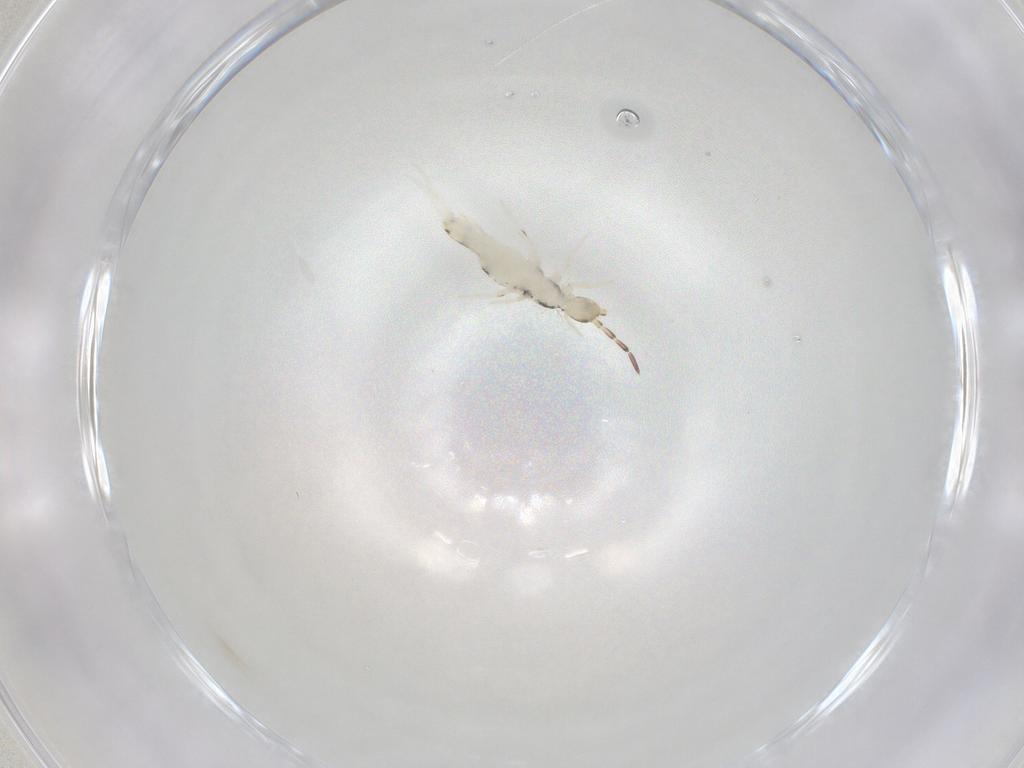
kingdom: Animalia
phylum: Arthropoda
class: Collembola
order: Entomobryomorpha
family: Entomobryidae
